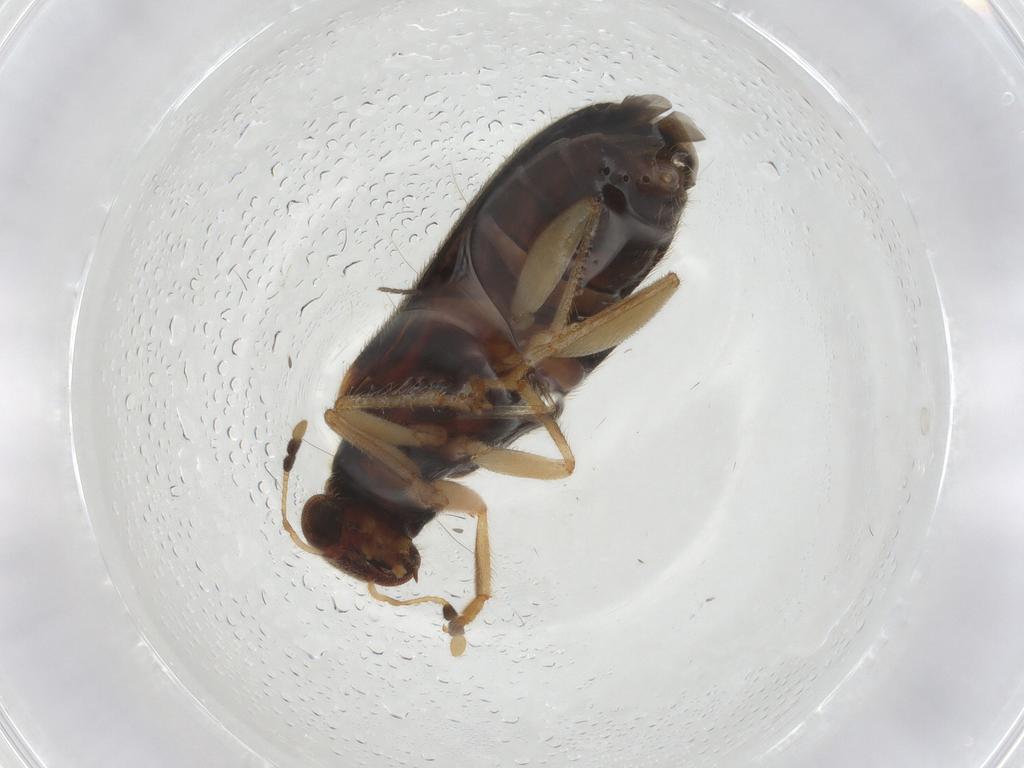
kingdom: Animalia
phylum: Arthropoda
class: Insecta
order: Coleoptera
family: Cleridae
